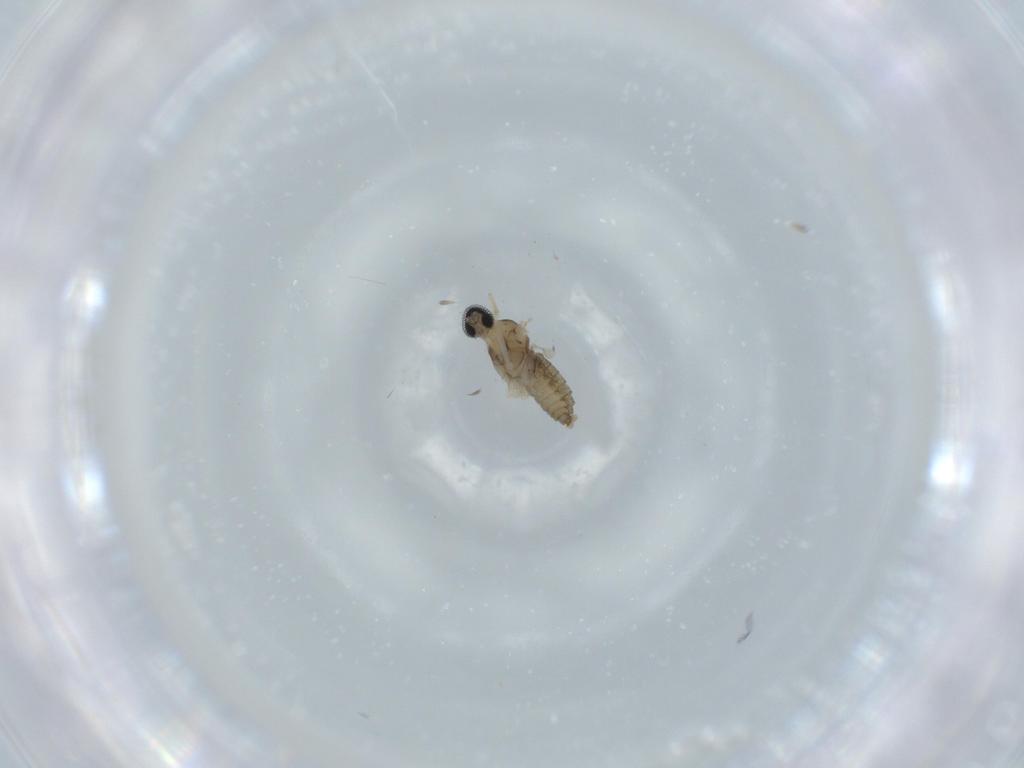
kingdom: Animalia
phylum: Arthropoda
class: Insecta
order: Diptera
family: Cecidomyiidae
